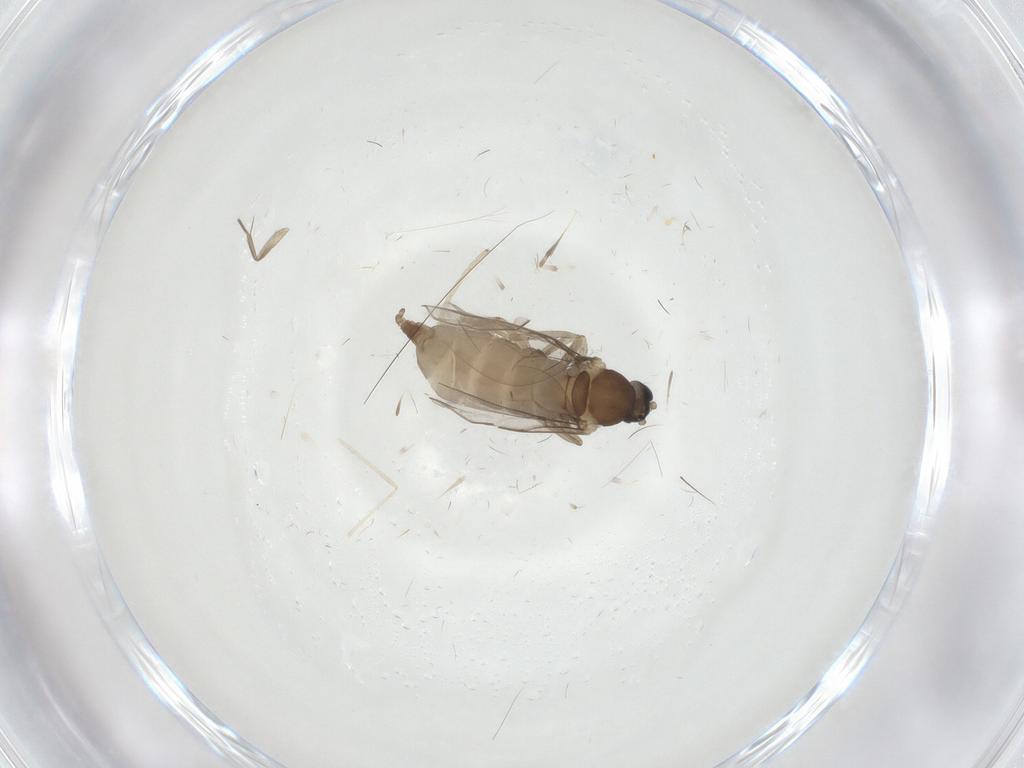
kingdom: Animalia
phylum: Arthropoda
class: Insecta
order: Diptera
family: Cecidomyiidae
